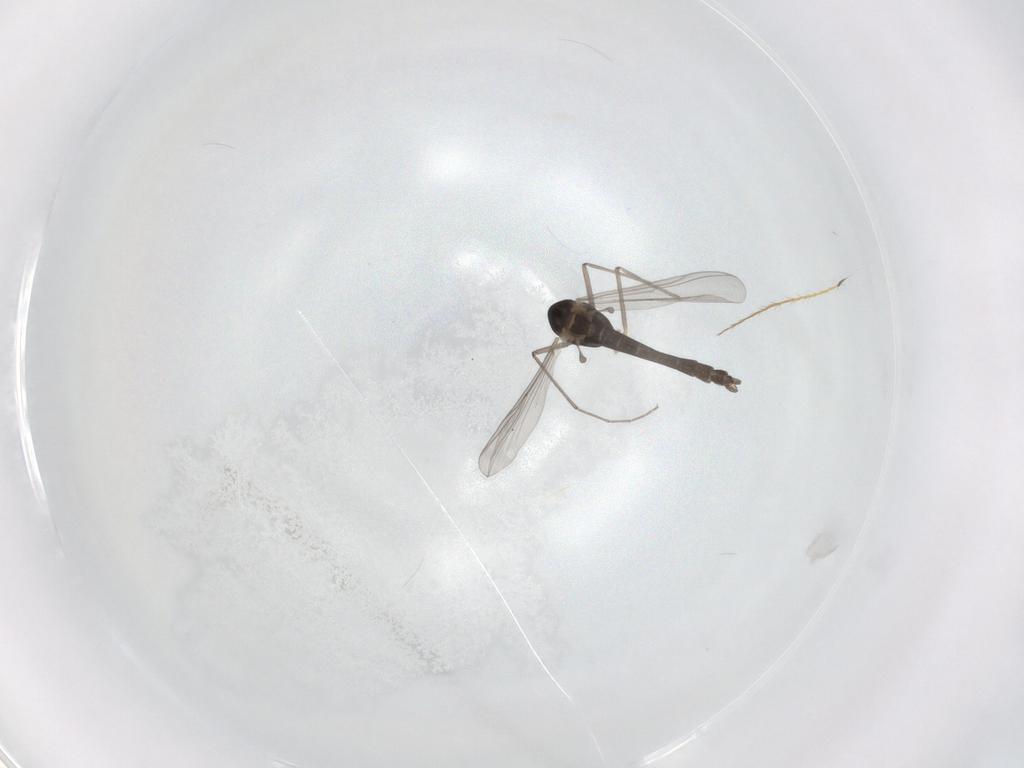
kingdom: Animalia
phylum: Arthropoda
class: Insecta
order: Diptera
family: Chironomidae
